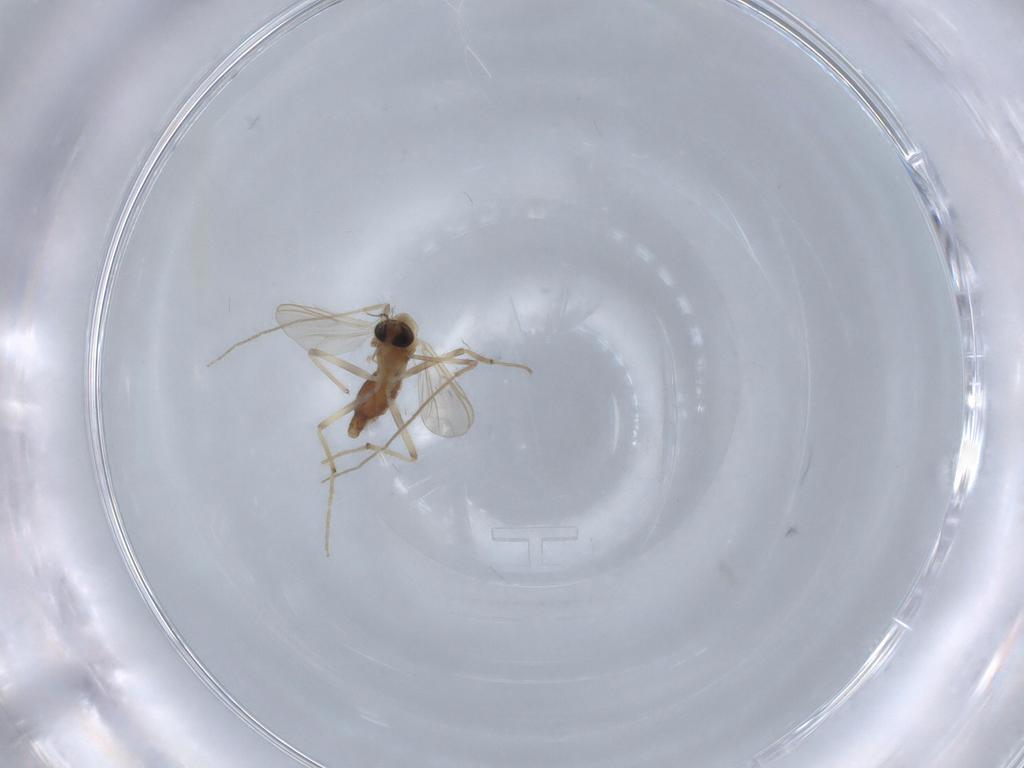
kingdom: Animalia
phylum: Arthropoda
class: Insecta
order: Diptera
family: Chironomidae
